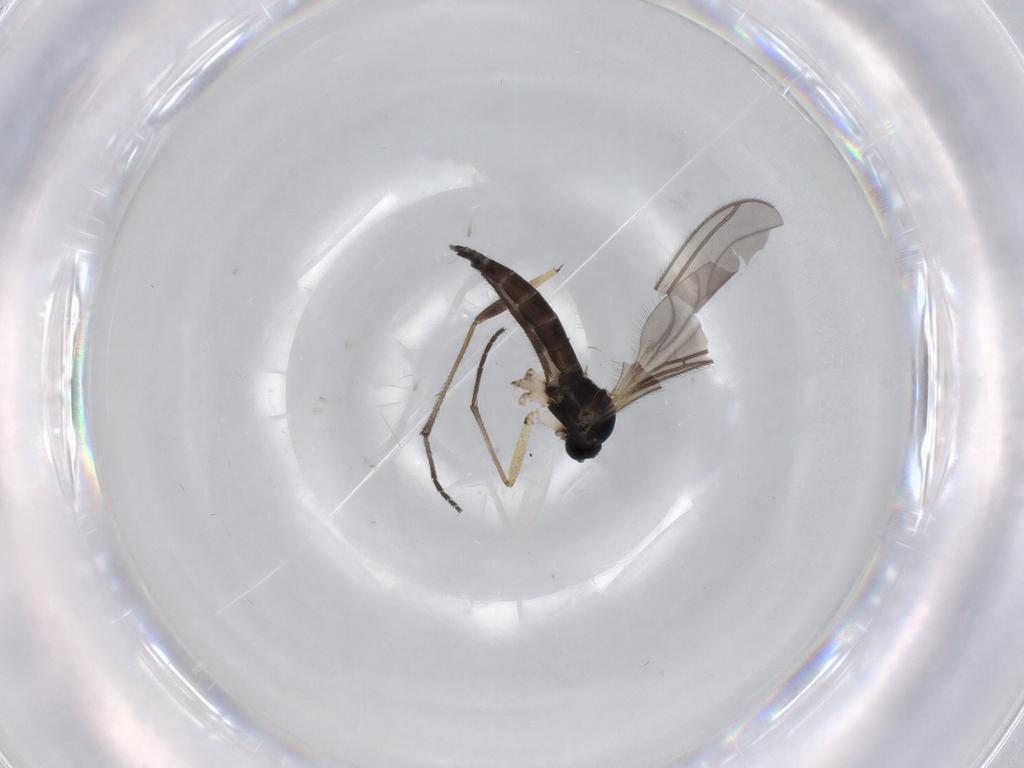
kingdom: Animalia
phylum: Arthropoda
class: Insecta
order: Diptera
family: Sciaridae
